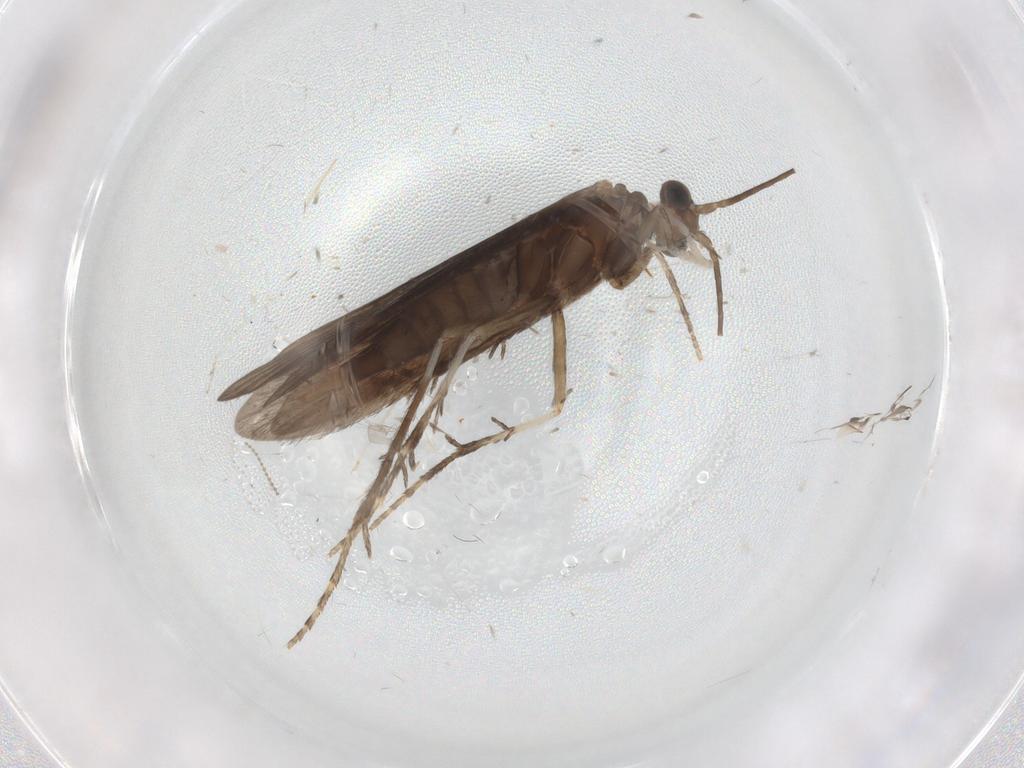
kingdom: Animalia
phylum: Arthropoda
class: Insecta
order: Trichoptera
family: Xiphocentronidae
